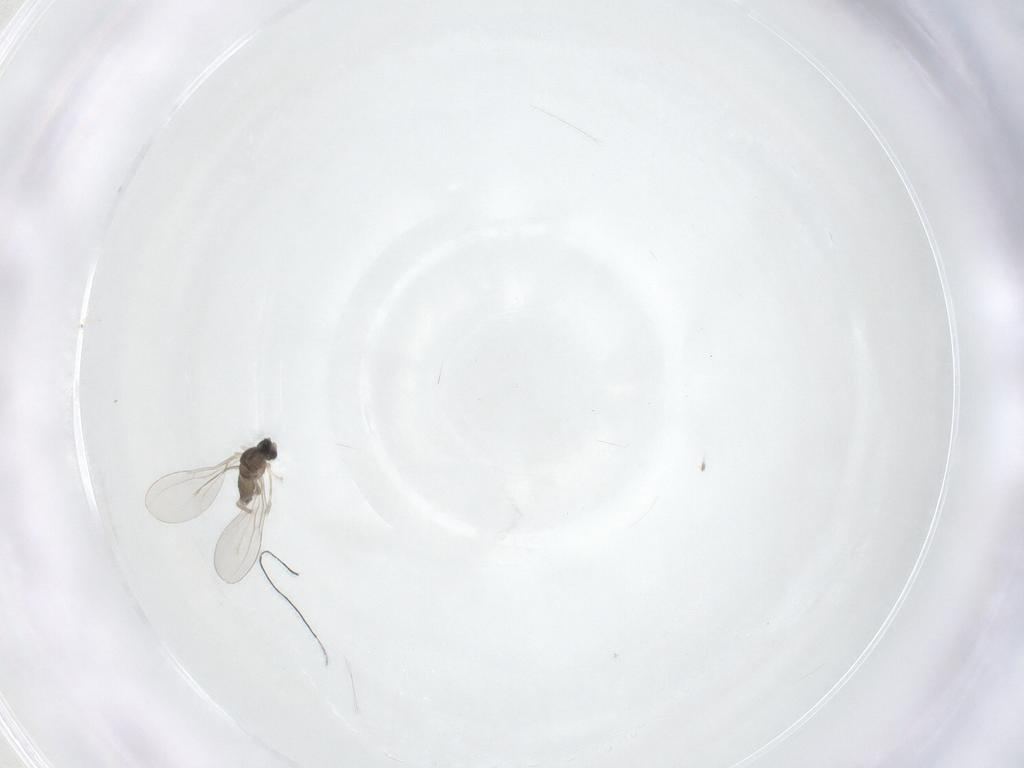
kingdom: Animalia
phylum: Arthropoda
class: Insecta
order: Diptera
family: Cecidomyiidae
